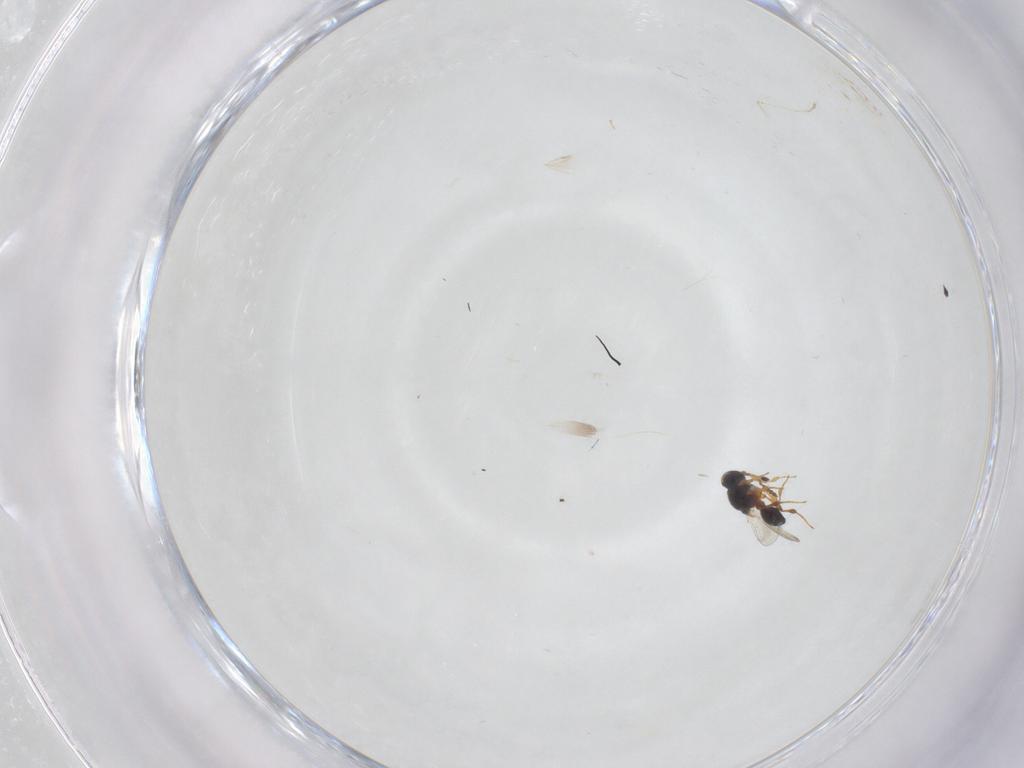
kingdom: Animalia
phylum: Arthropoda
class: Insecta
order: Hymenoptera
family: Platygastridae
